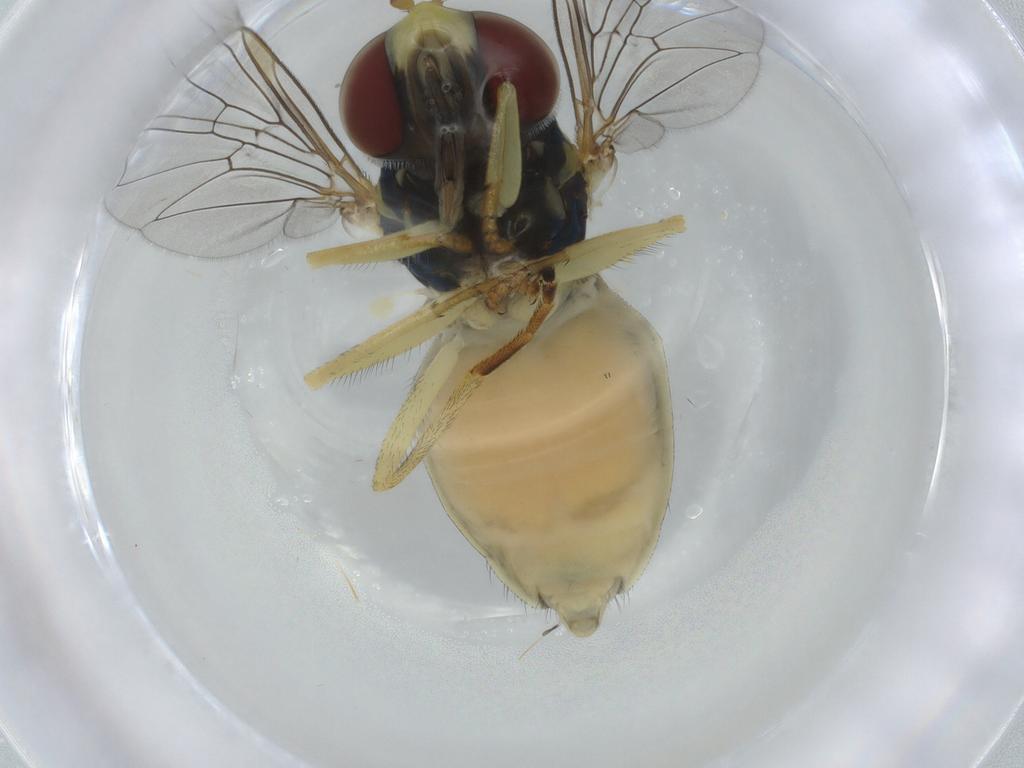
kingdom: Animalia
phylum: Arthropoda
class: Insecta
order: Diptera
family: Syrphidae
